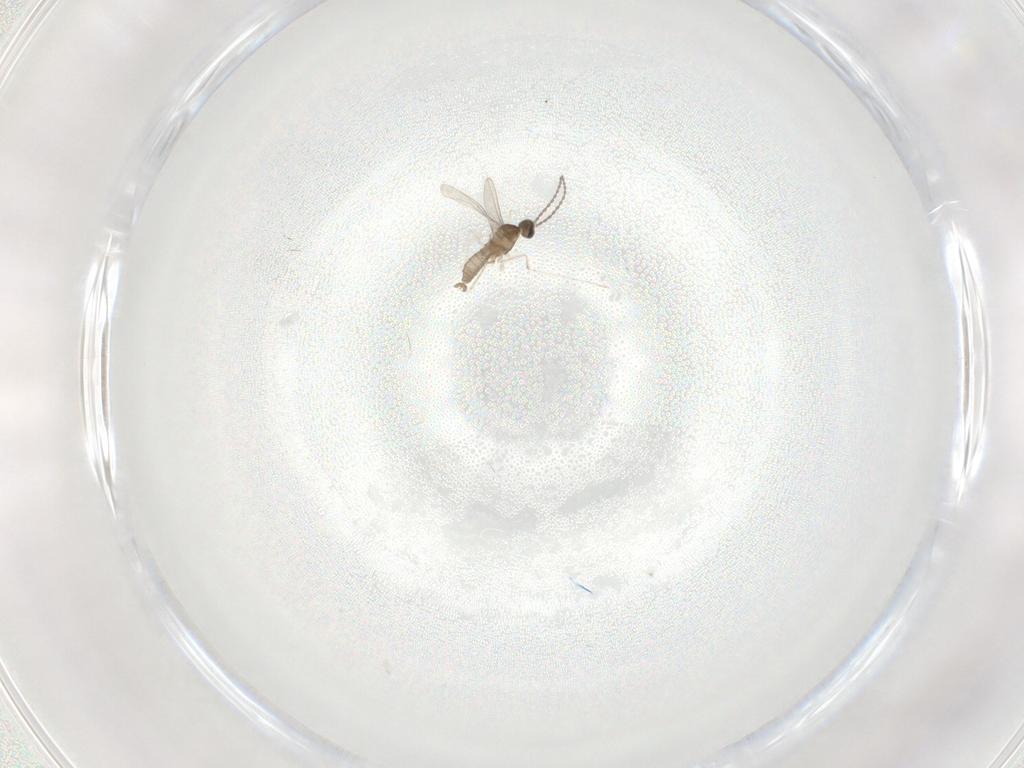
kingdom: Animalia
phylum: Arthropoda
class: Insecta
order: Diptera
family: Cecidomyiidae
